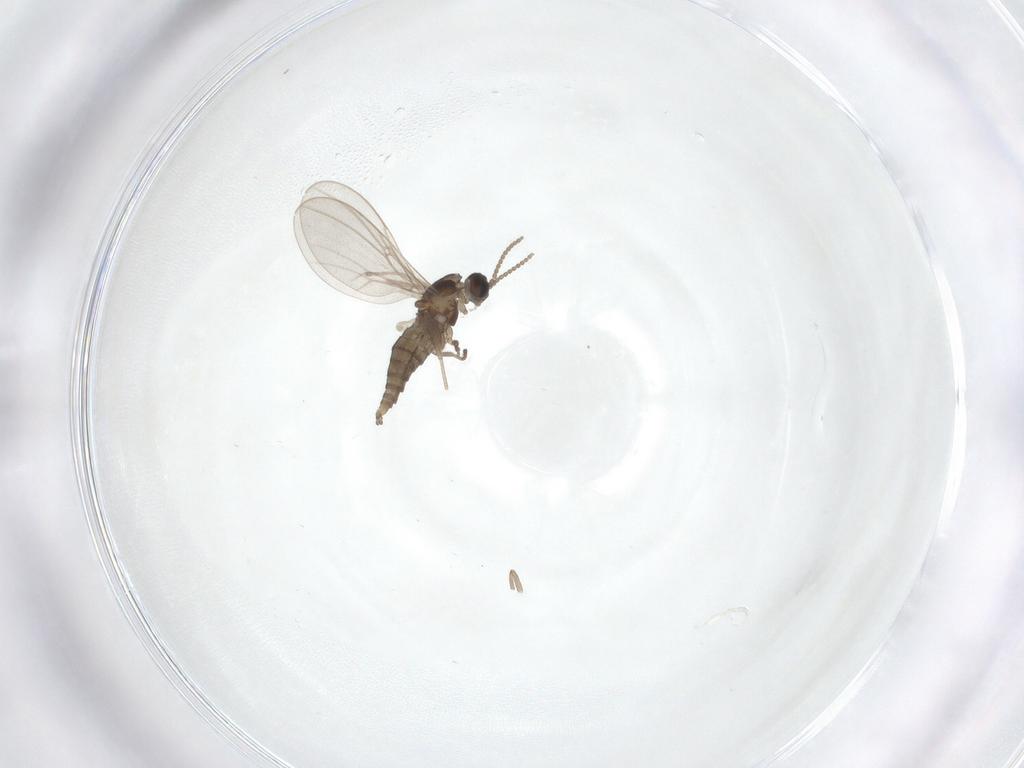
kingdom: Animalia
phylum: Arthropoda
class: Insecta
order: Diptera
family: Cecidomyiidae
